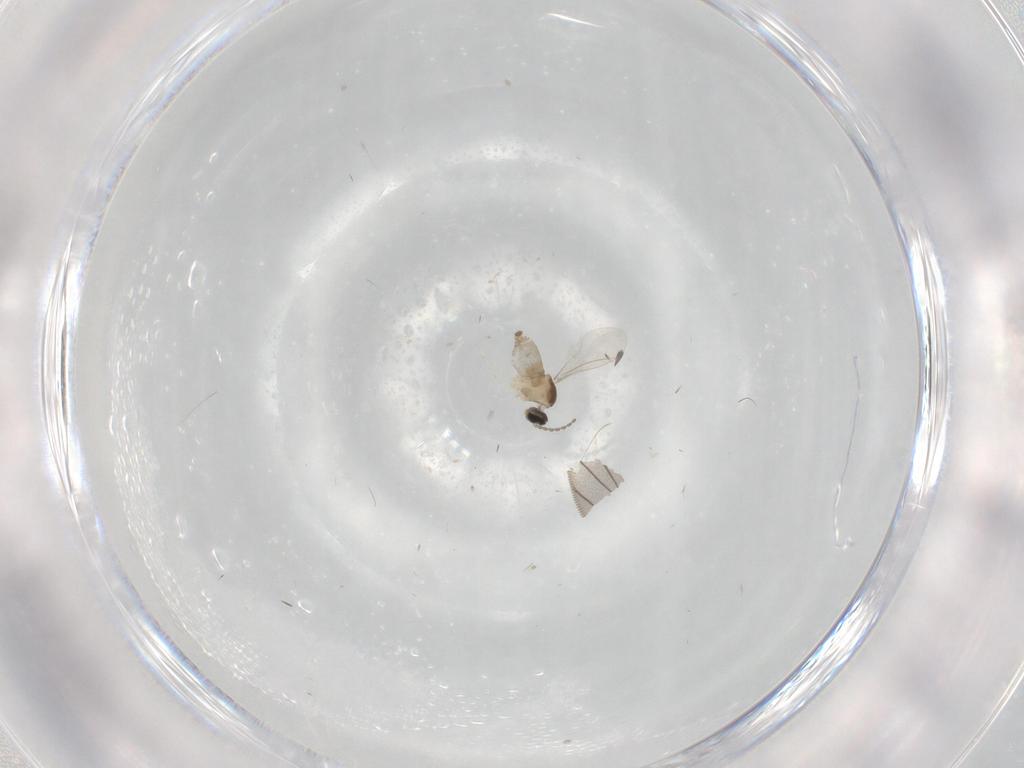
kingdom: Animalia
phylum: Arthropoda
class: Insecta
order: Diptera
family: Cecidomyiidae
